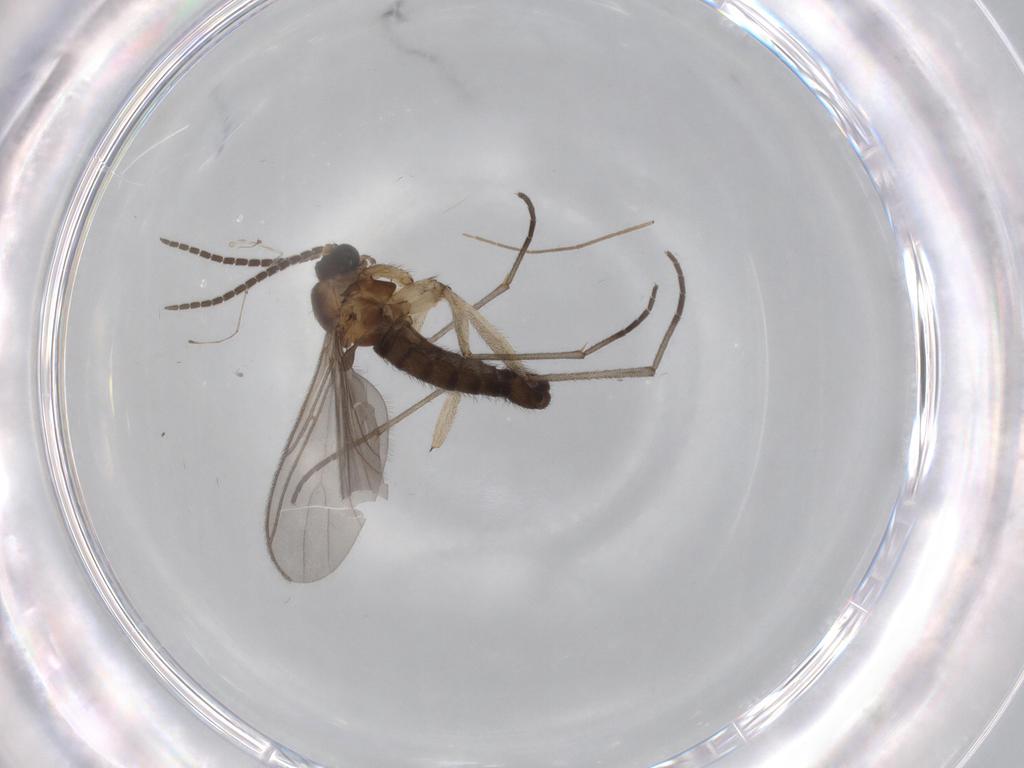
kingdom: Animalia
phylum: Arthropoda
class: Insecta
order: Diptera
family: Sciaridae
